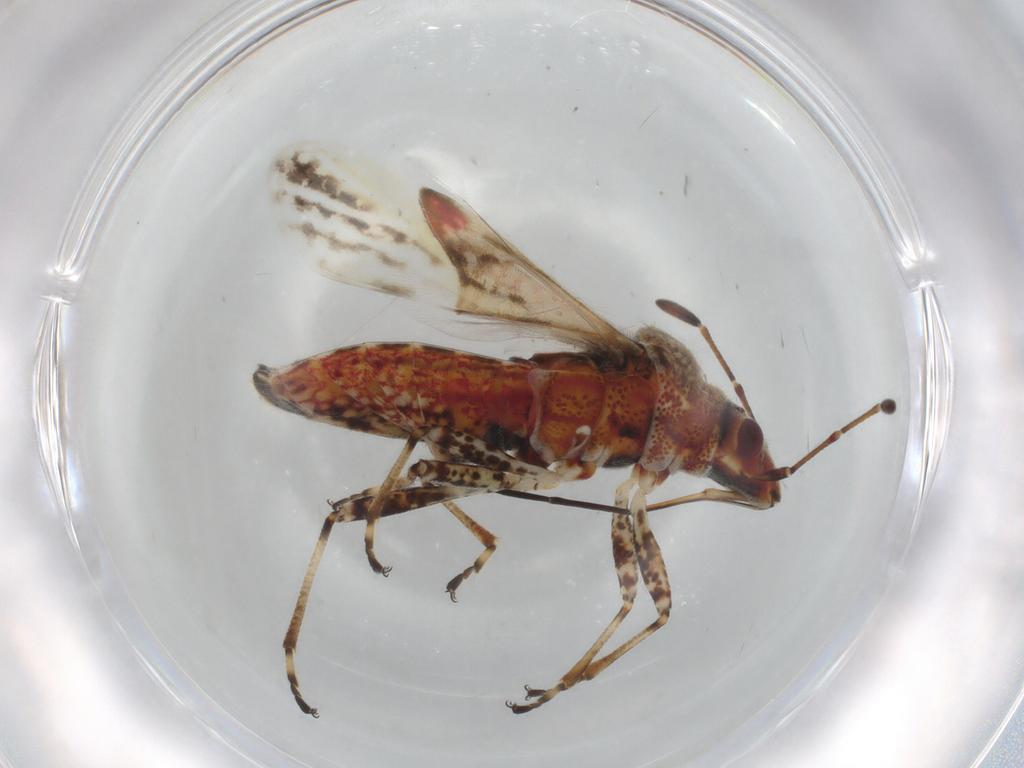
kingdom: Animalia
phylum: Arthropoda
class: Insecta
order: Hemiptera
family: Lygaeidae
